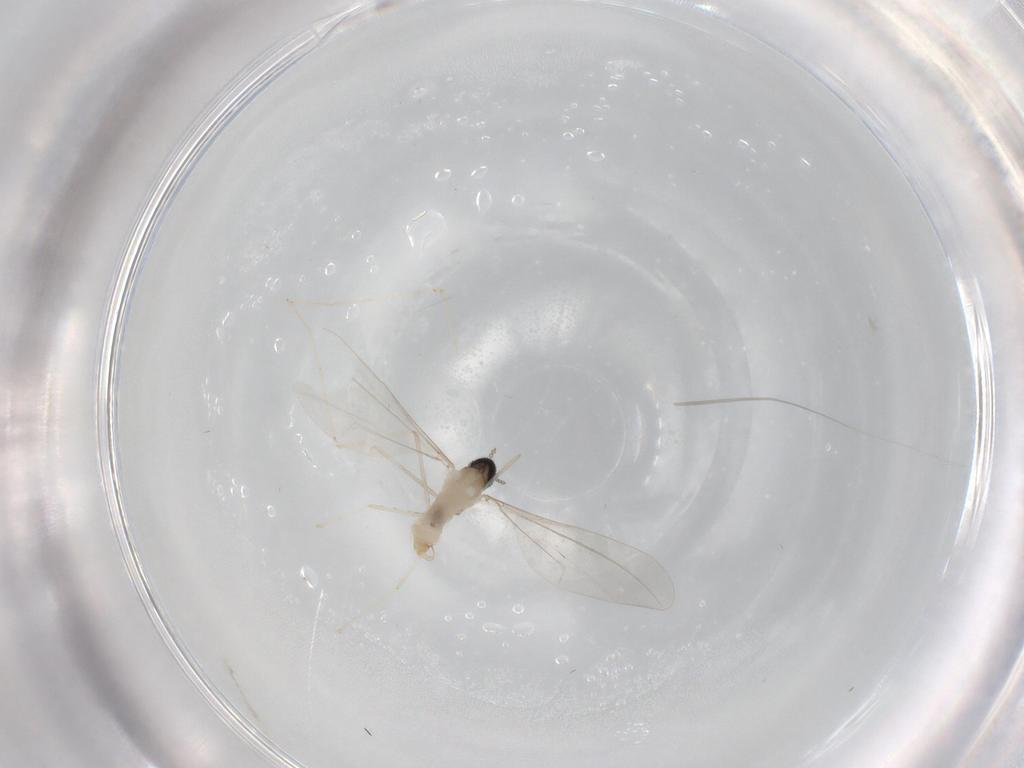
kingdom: Animalia
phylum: Arthropoda
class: Insecta
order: Diptera
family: Cecidomyiidae
